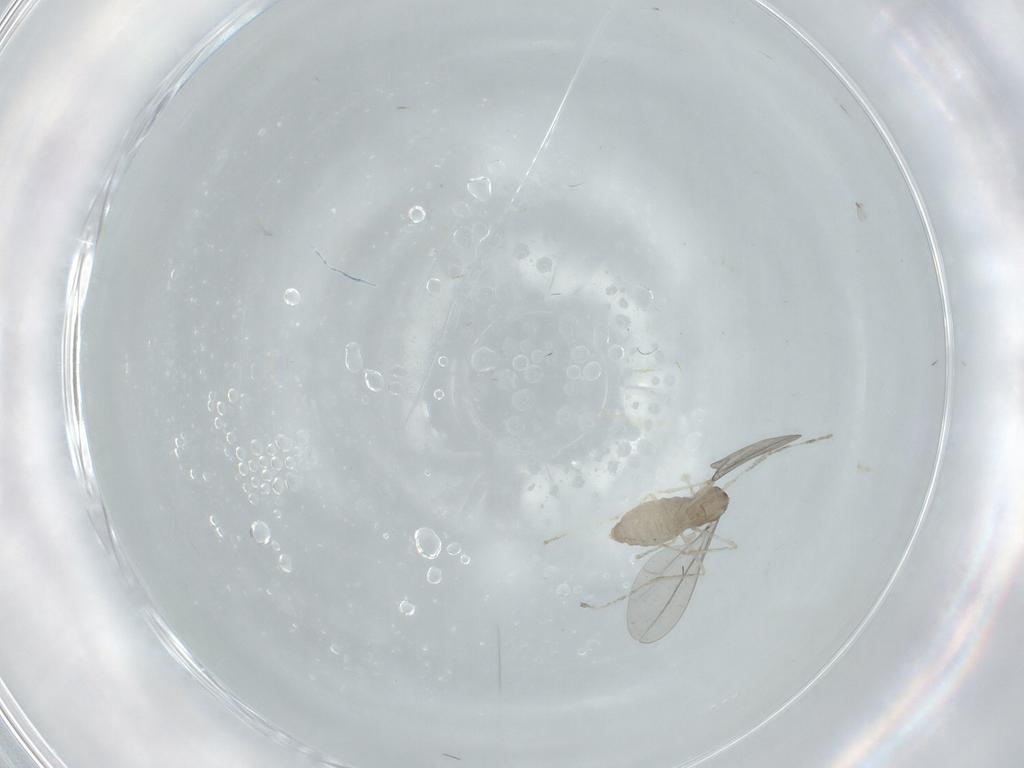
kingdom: Animalia
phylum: Arthropoda
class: Insecta
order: Diptera
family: Cecidomyiidae
